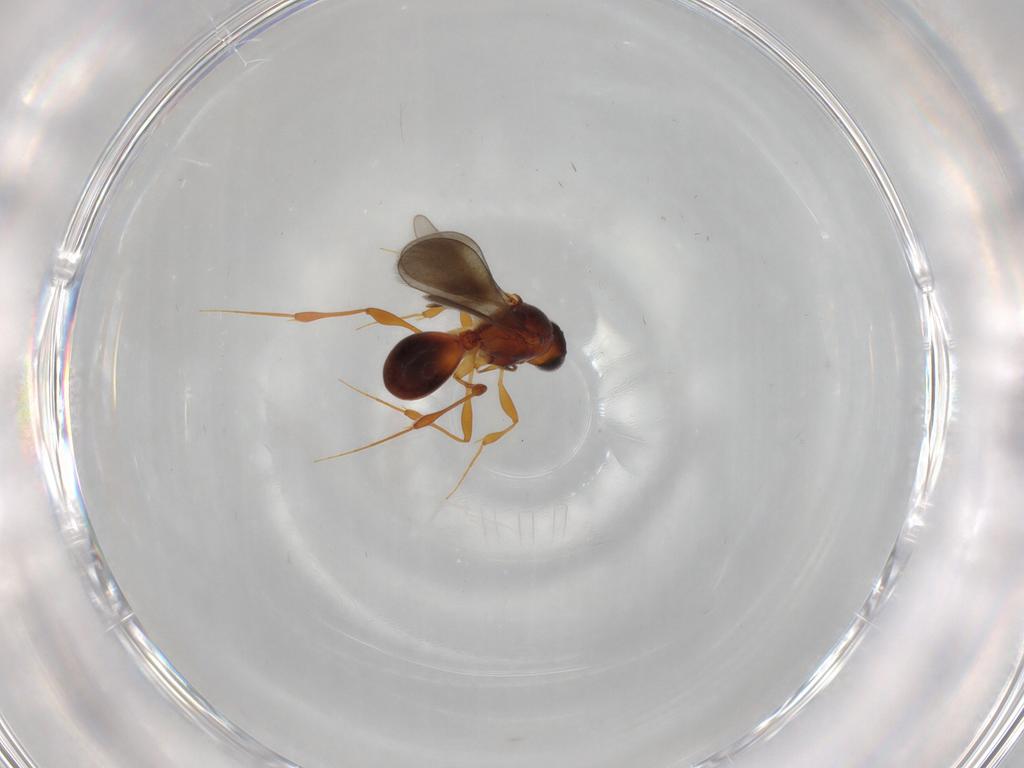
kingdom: Animalia
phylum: Arthropoda
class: Insecta
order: Hymenoptera
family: Platygastridae
